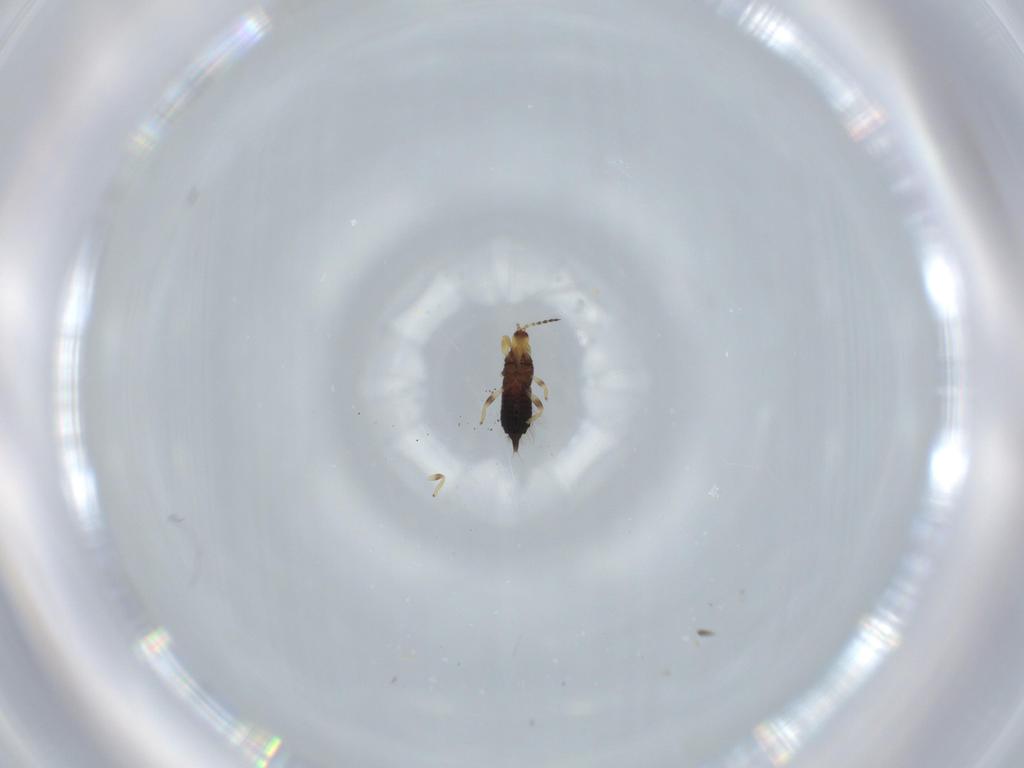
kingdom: Animalia
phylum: Arthropoda
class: Insecta
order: Thysanoptera
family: Phlaeothripidae
